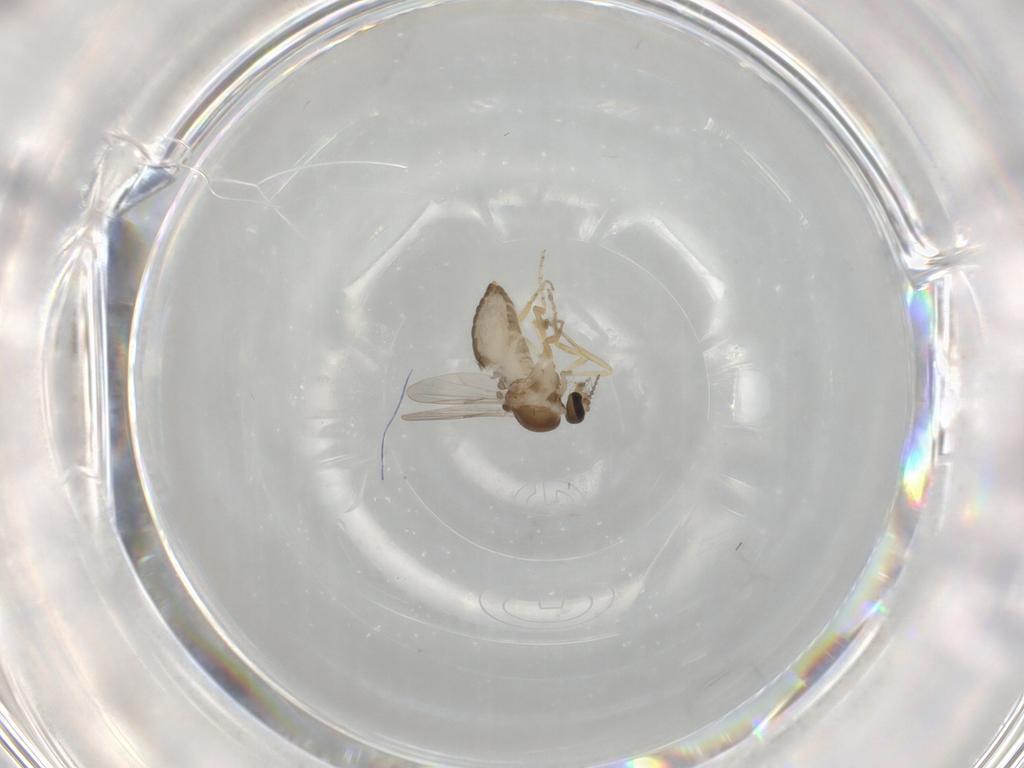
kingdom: Animalia
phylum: Arthropoda
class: Insecta
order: Diptera
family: Ceratopogonidae
